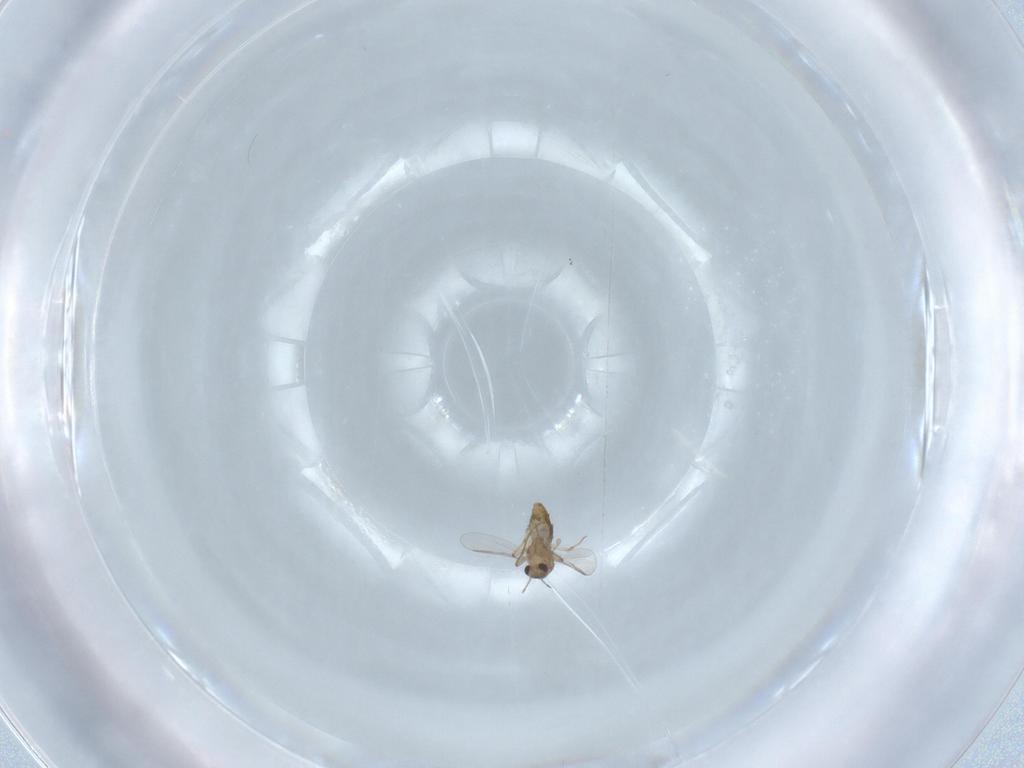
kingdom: Animalia
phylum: Arthropoda
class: Insecta
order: Diptera
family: Chironomidae
